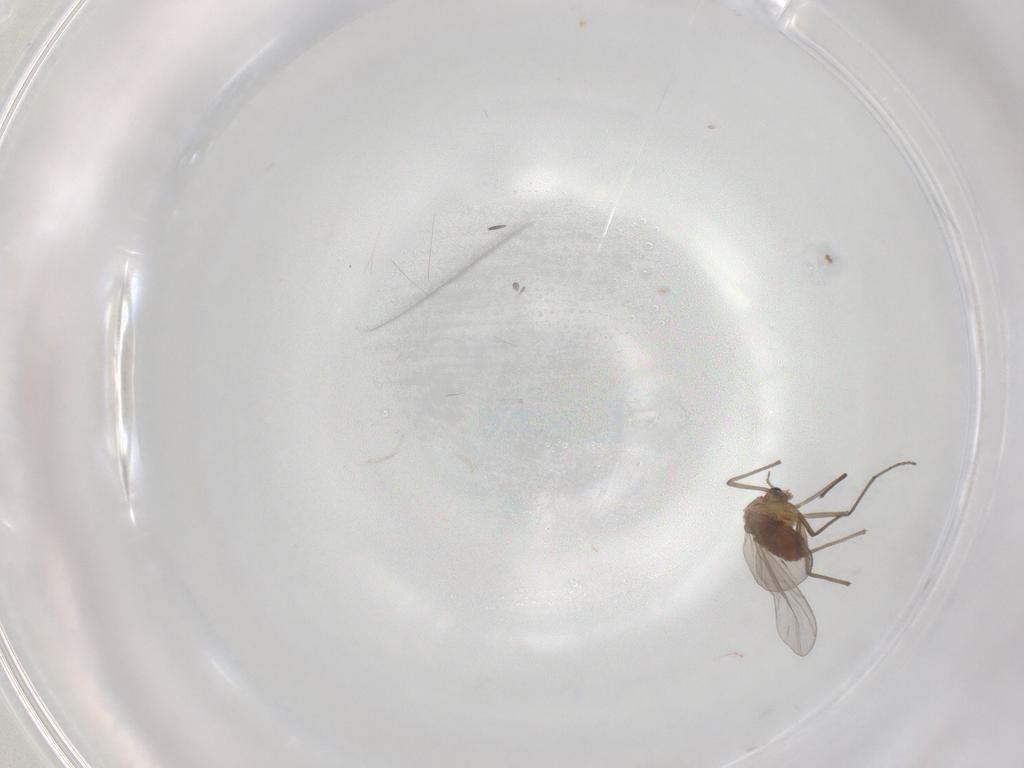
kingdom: Animalia
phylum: Arthropoda
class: Insecta
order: Diptera
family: Chironomidae
